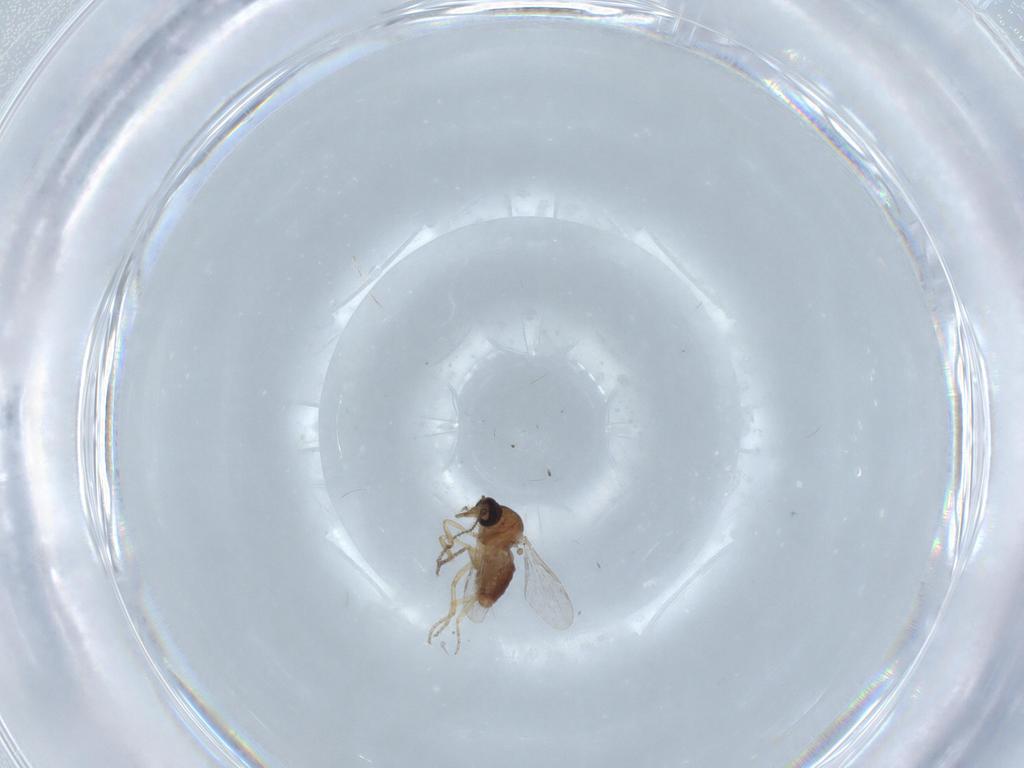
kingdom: Animalia
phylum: Arthropoda
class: Insecta
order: Diptera
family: Ceratopogonidae
